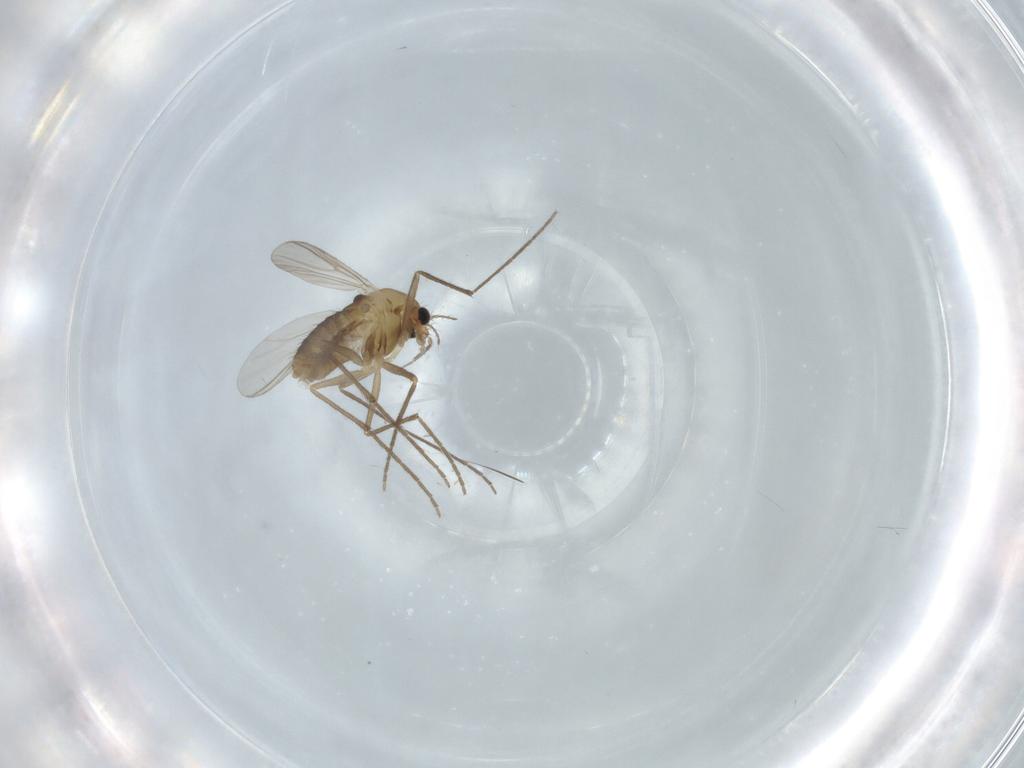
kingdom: Animalia
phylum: Arthropoda
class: Insecta
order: Diptera
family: Chironomidae
